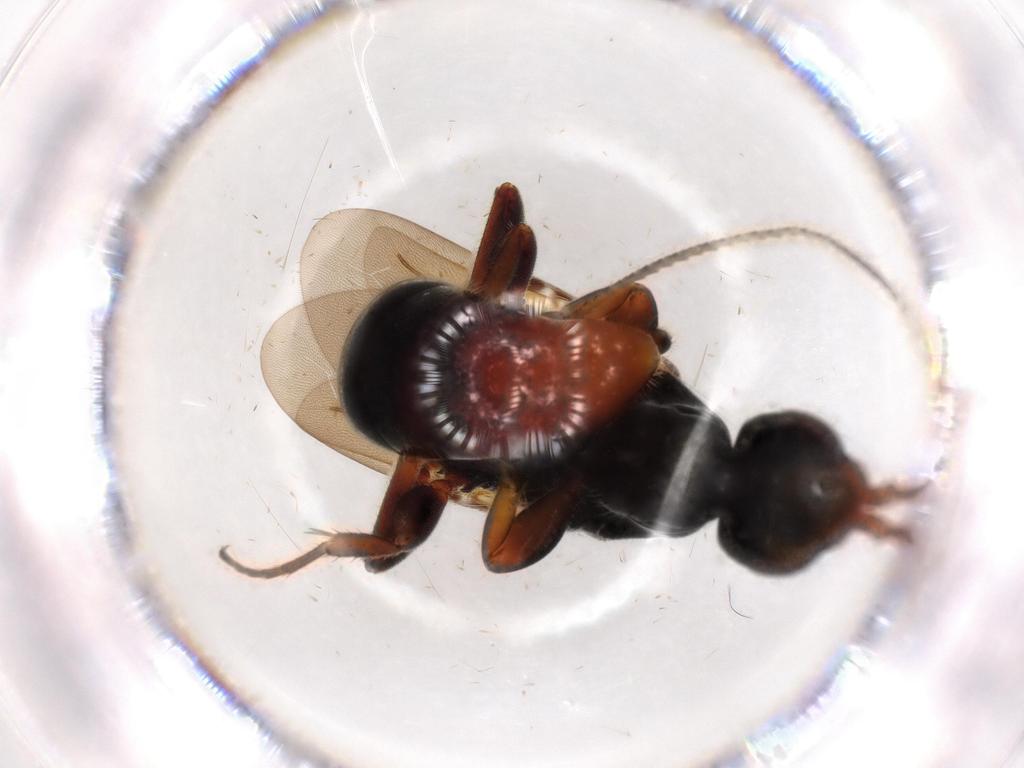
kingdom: Animalia
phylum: Arthropoda
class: Insecta
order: Hymenoptera
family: Bethylidae
